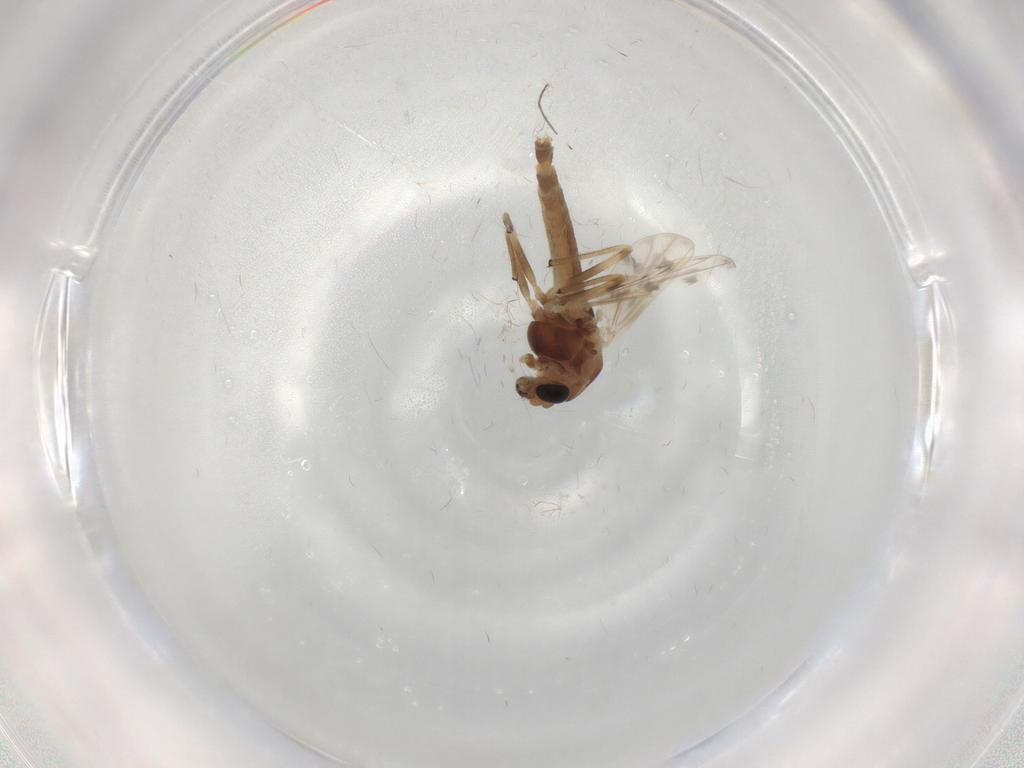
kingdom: Animalia
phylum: Arthropoda
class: Insecta
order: Diptera
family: Chironomidae
